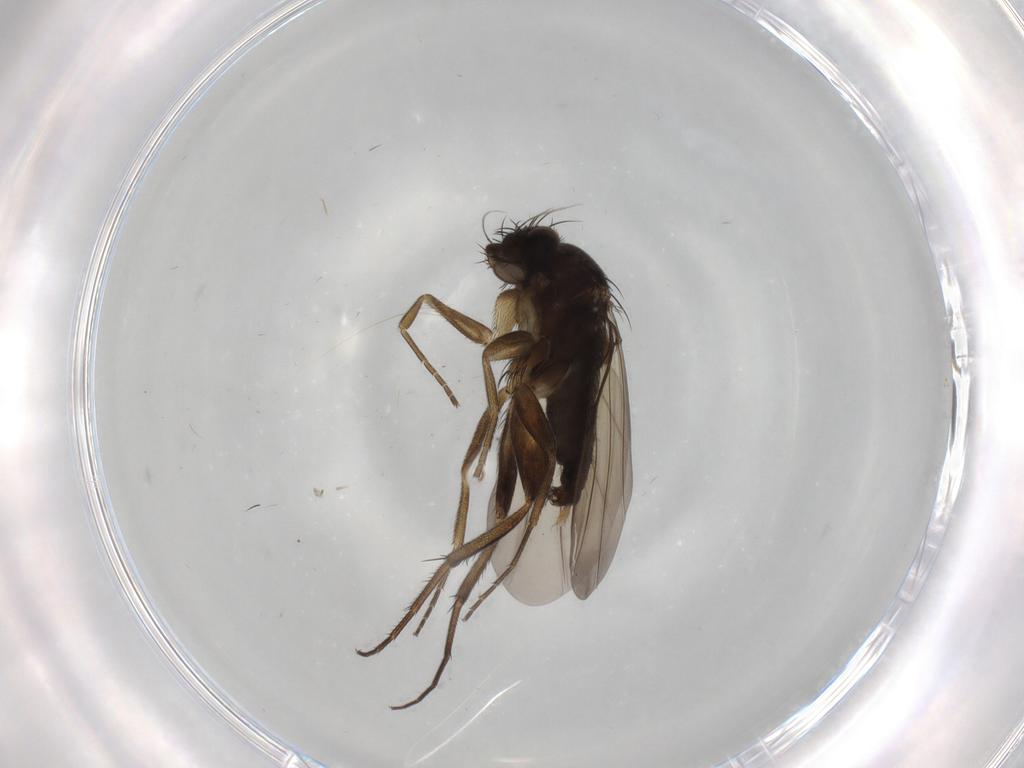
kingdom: Animalia
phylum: Arthropoda
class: Insecta
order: Diptera
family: Phoridae
